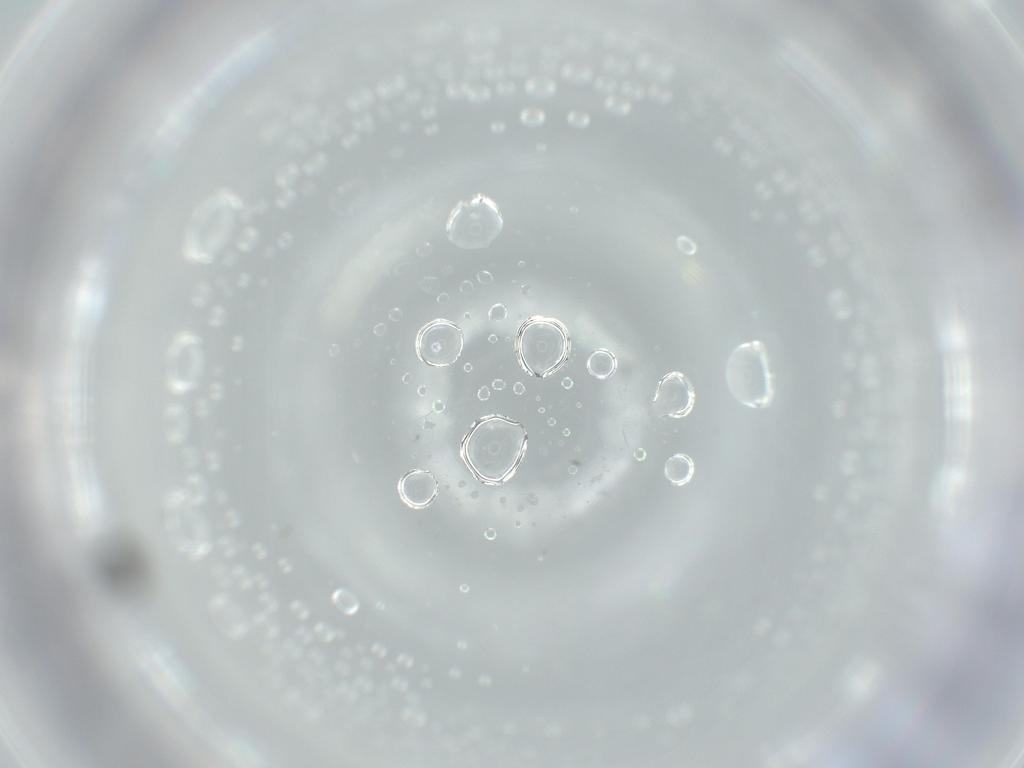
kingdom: Animalia
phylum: Arthropoda
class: Insecta
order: Hymenoptera
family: Scelionidae
